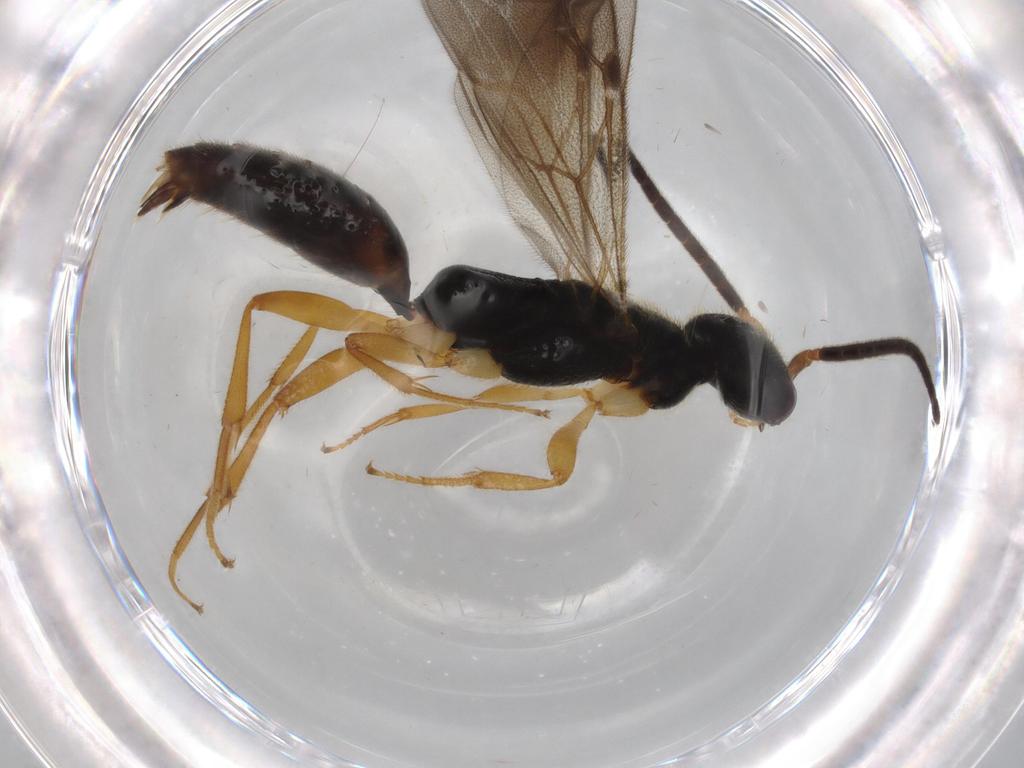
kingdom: Animalia
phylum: Arthropoda
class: Insecta
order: Hymenoptera
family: Bethylidae
